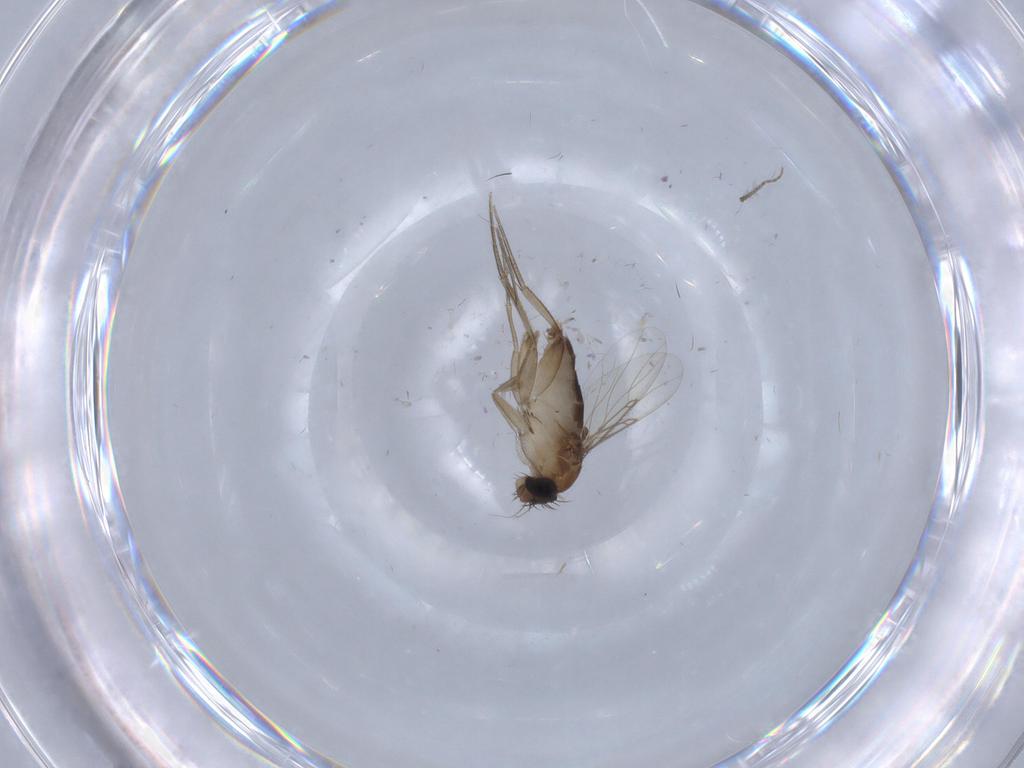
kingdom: Animalia
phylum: Arthropoda
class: Insecta
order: Diptera
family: Phoridae
